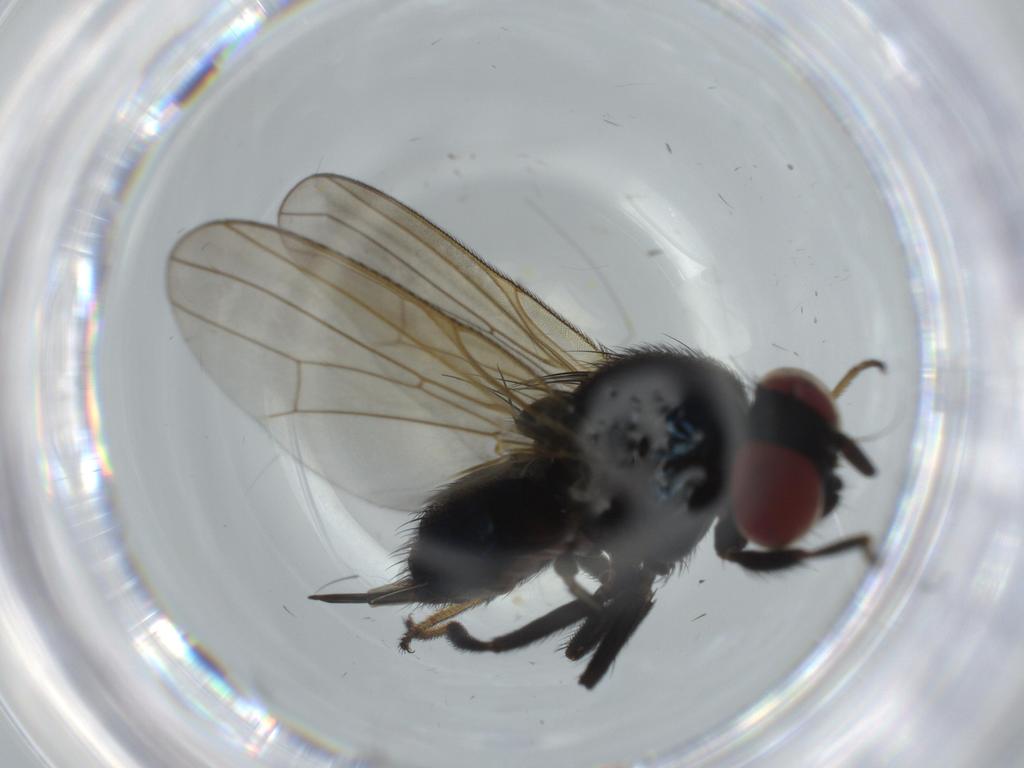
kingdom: Animalia
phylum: Arthropoda
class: Insecta
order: Diptera
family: Lonchaeidae
